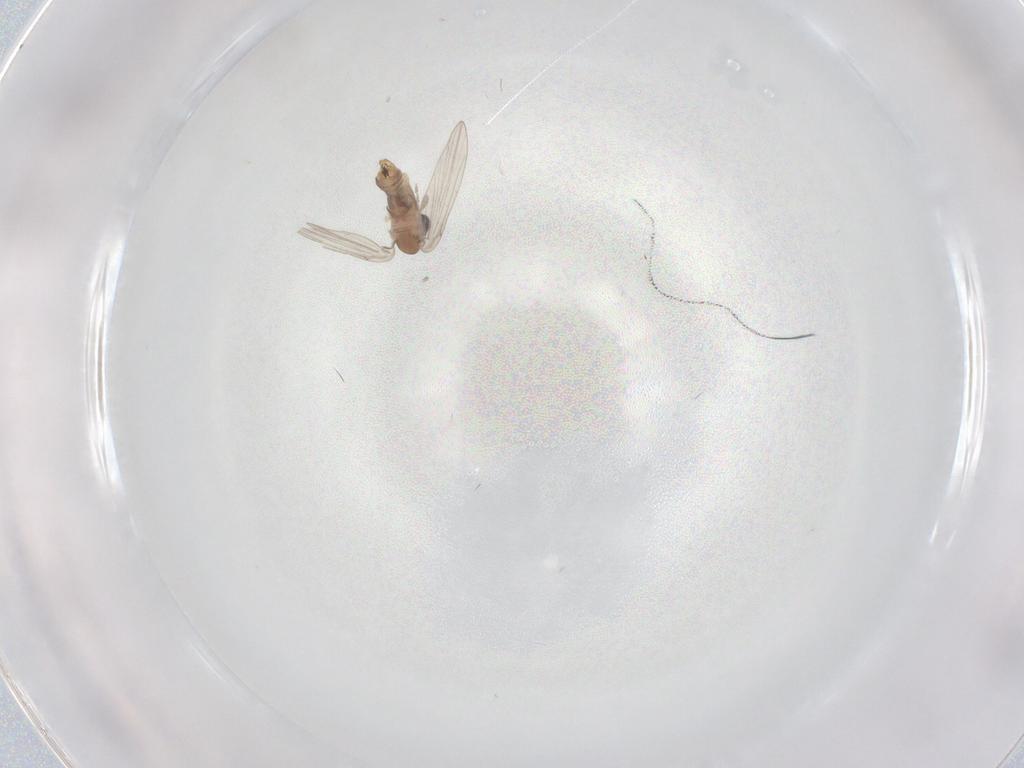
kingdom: Animalia
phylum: Arthropoda
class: Insecta
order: Diptera
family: Psychodidae
